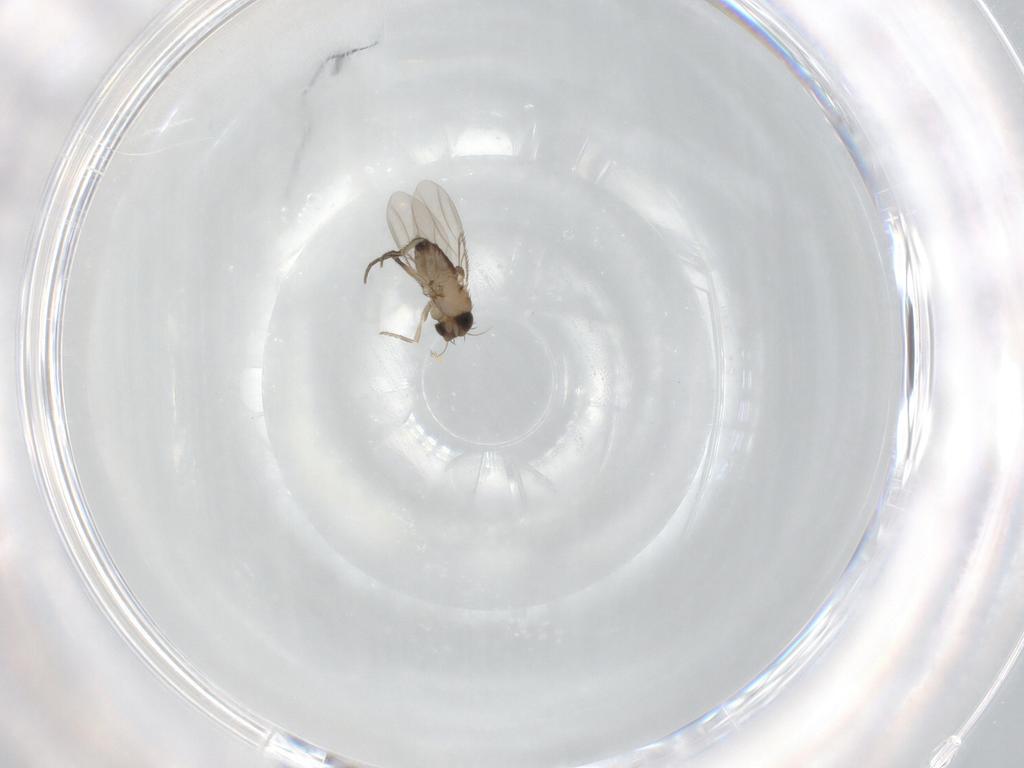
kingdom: Animalia
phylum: Arthropoda
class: Insecta
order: Diptera
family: Phoridae
